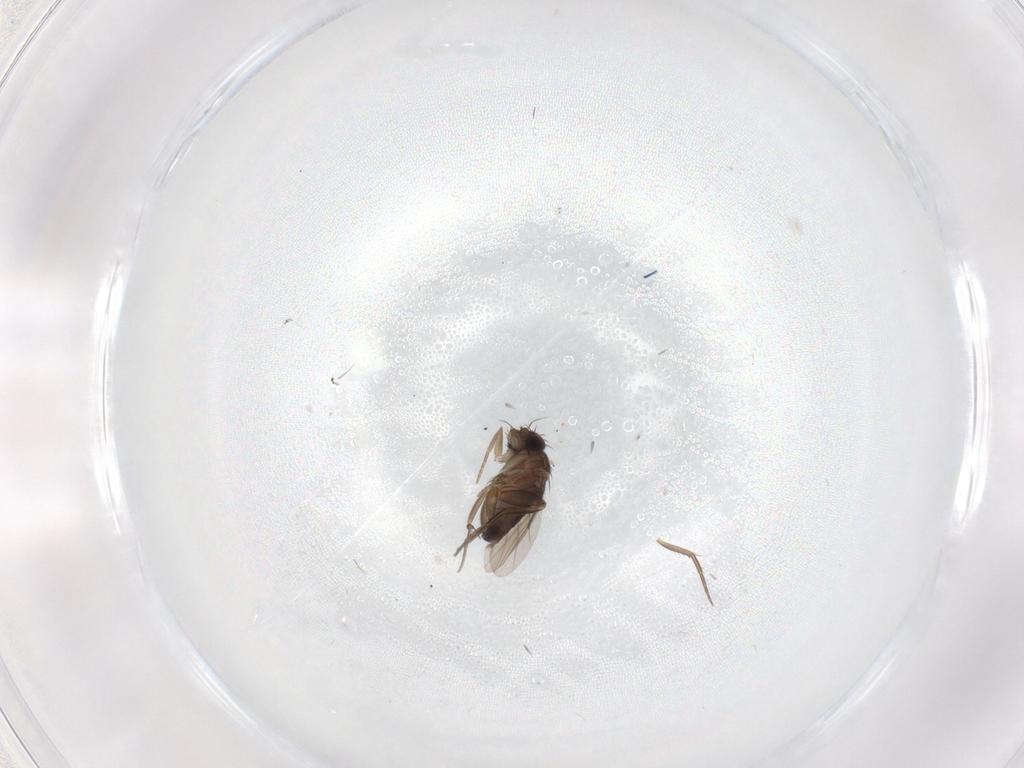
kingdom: Animalia
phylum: Arthropoda
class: Insecta
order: Diptera
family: Phoridae
